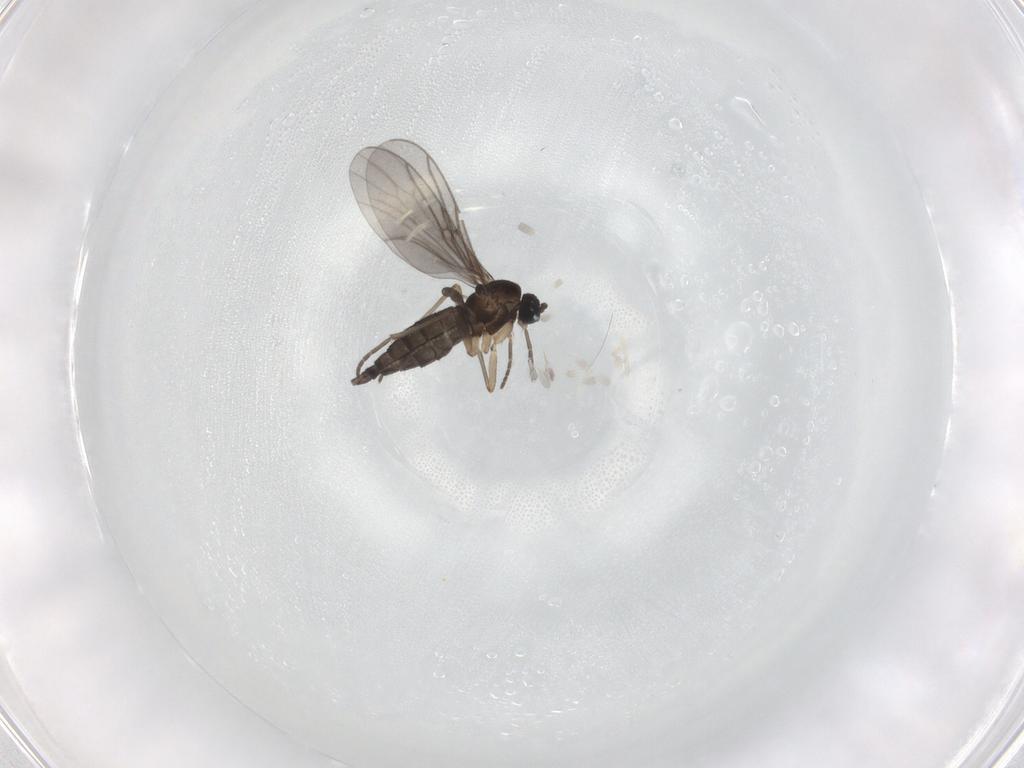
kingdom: Animalia
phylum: Arthropoda
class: Insecta
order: Diptera
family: Sciaridae
